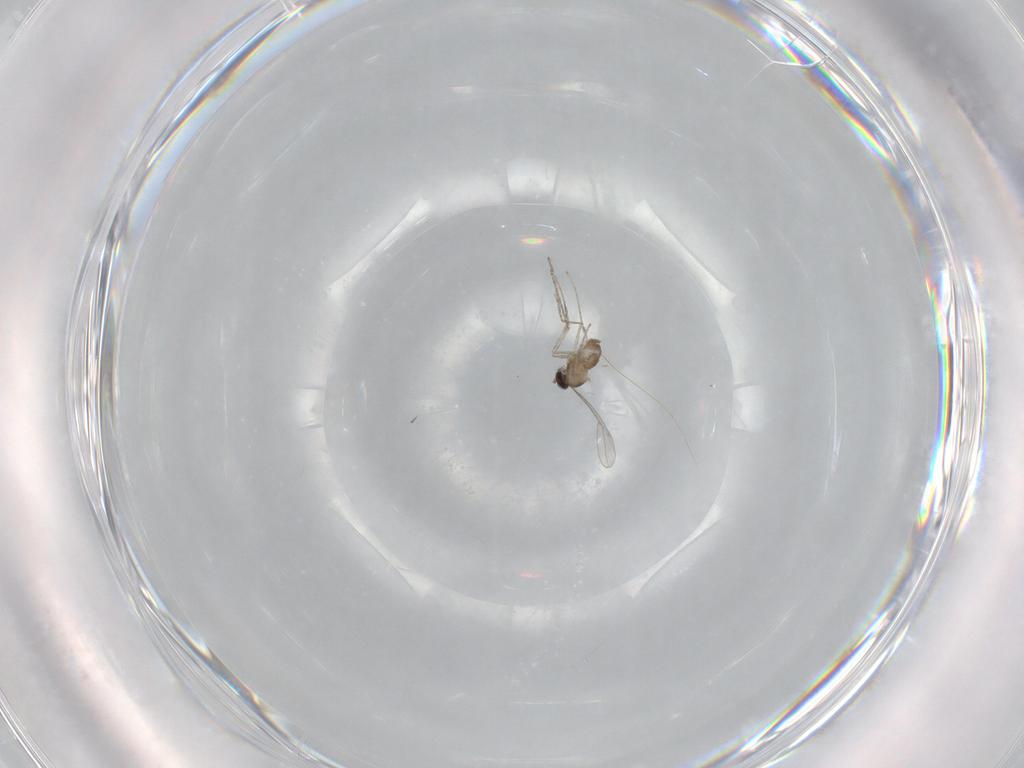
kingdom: Animalia
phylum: Arthropoda
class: Insecta
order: Diptera
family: Cecidomyiidae
